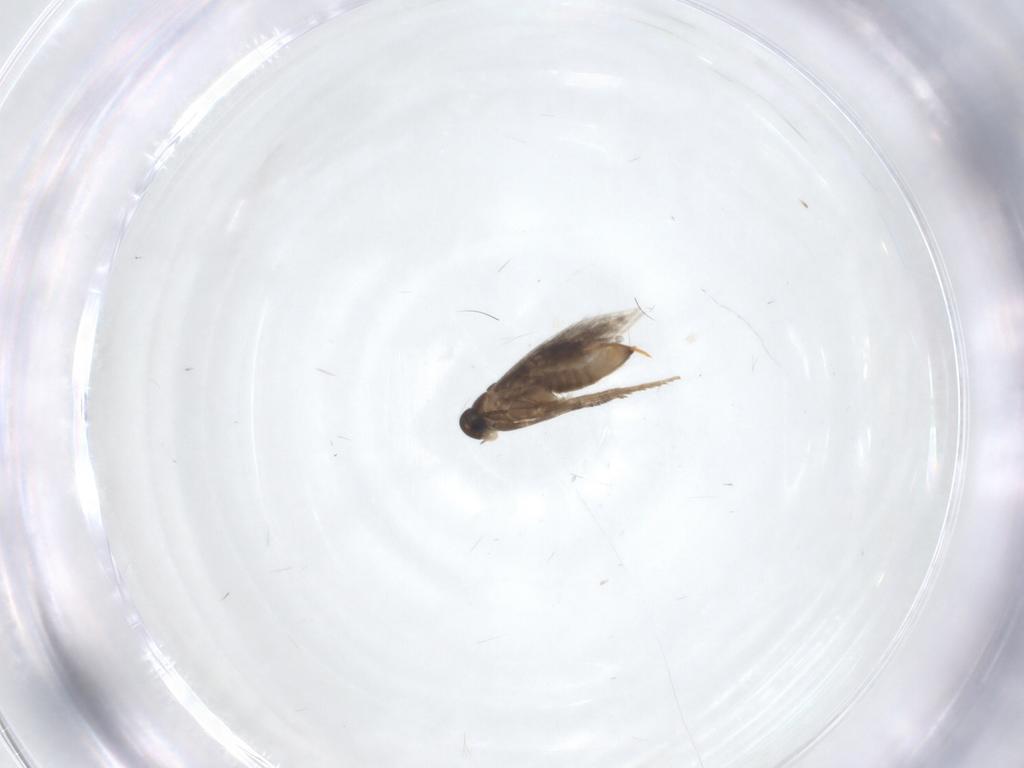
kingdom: Animalia
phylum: Arthropoda
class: Insecta
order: Lepidoptera
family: Heliozelidae
